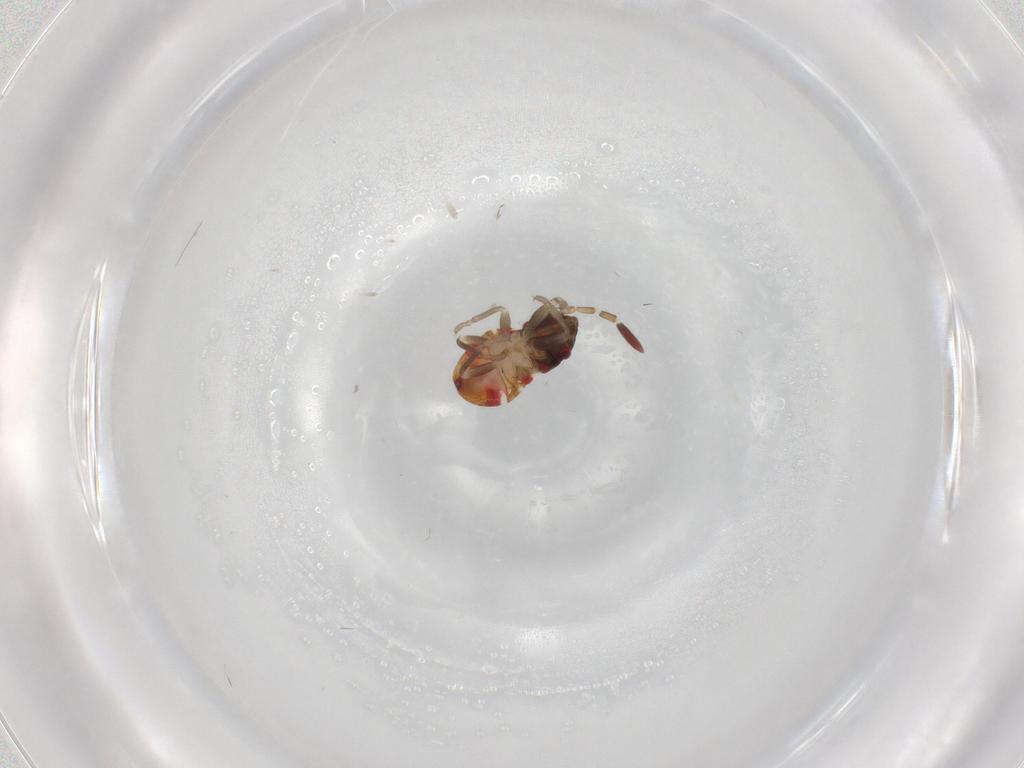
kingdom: Animalia
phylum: Arthropoda
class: Insecta
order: Hemiptera
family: Rhyparochromidae
